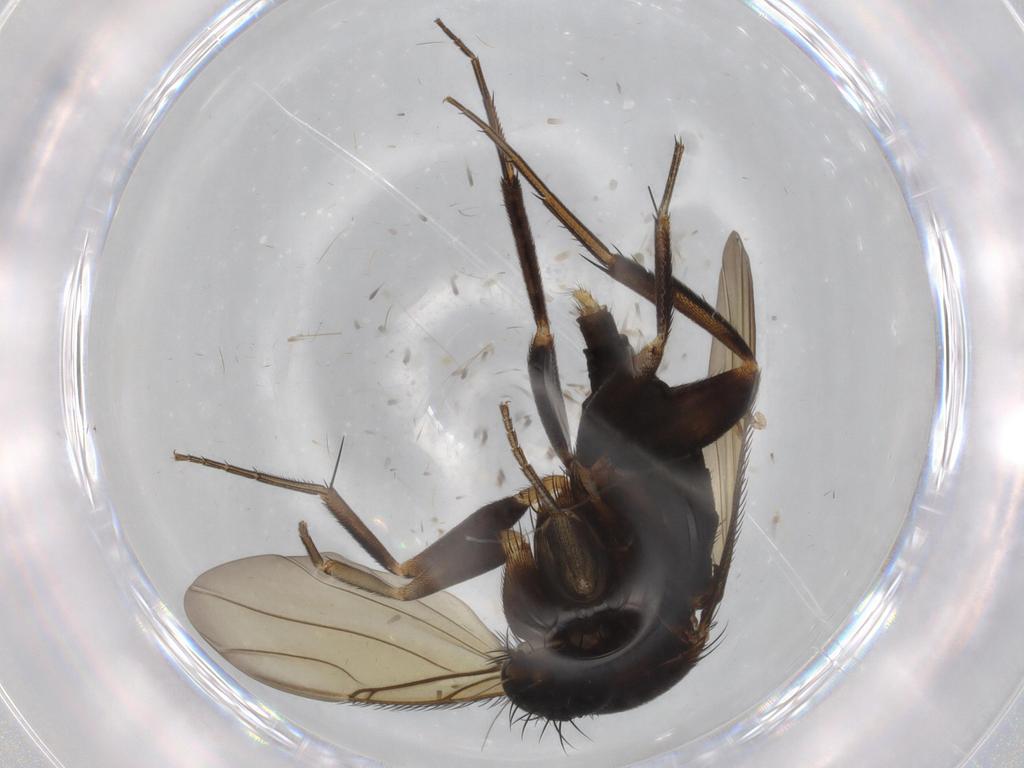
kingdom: Animalia
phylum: Arthropoda
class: Insecta
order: Diptera
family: Phoridae
